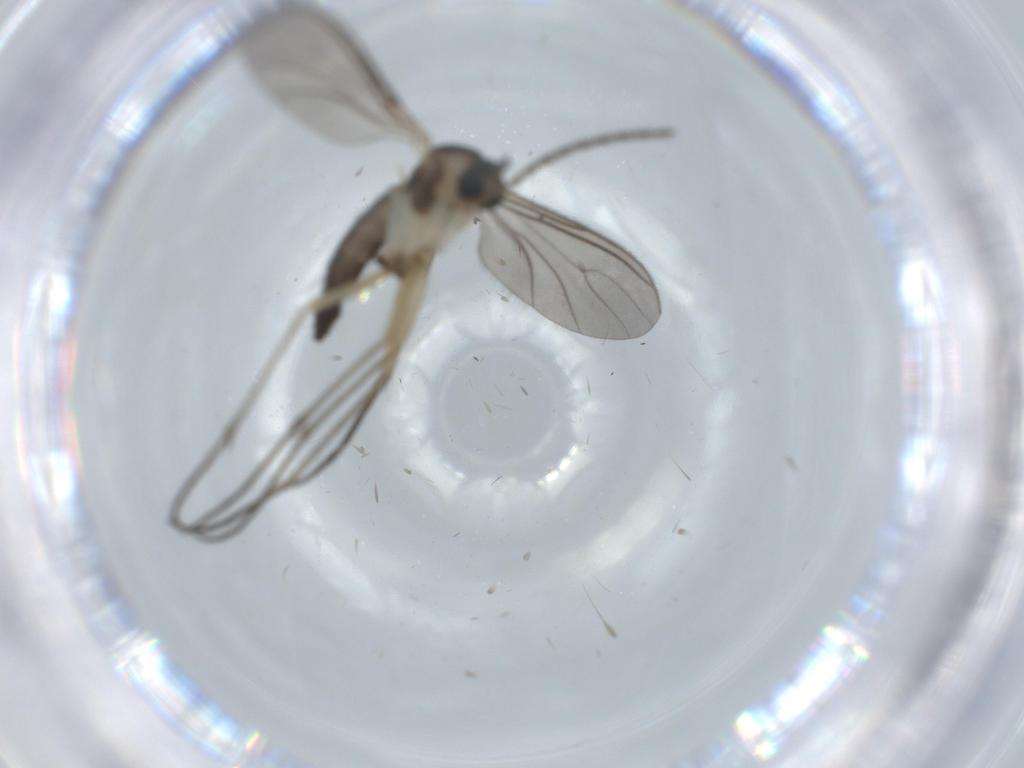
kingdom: Animalia
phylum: Arthropoda
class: Insecta
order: Diptera
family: Sciaridae
